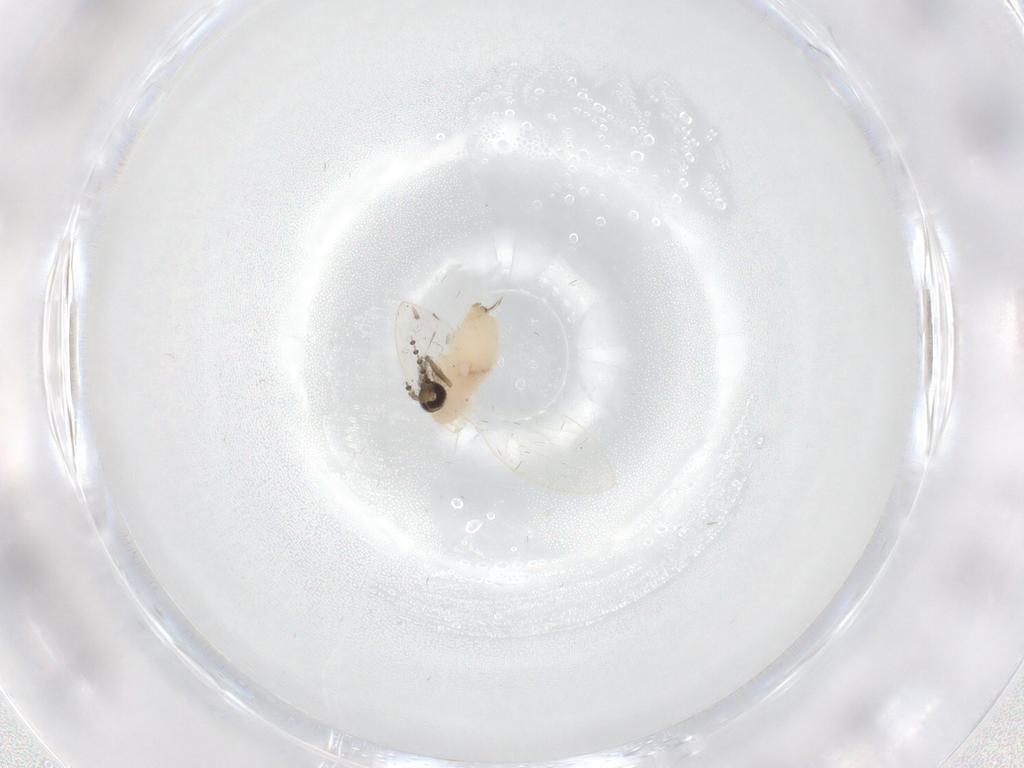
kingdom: Animalia
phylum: Arthropoda
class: Insecta
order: Diptera
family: Psychodidae
